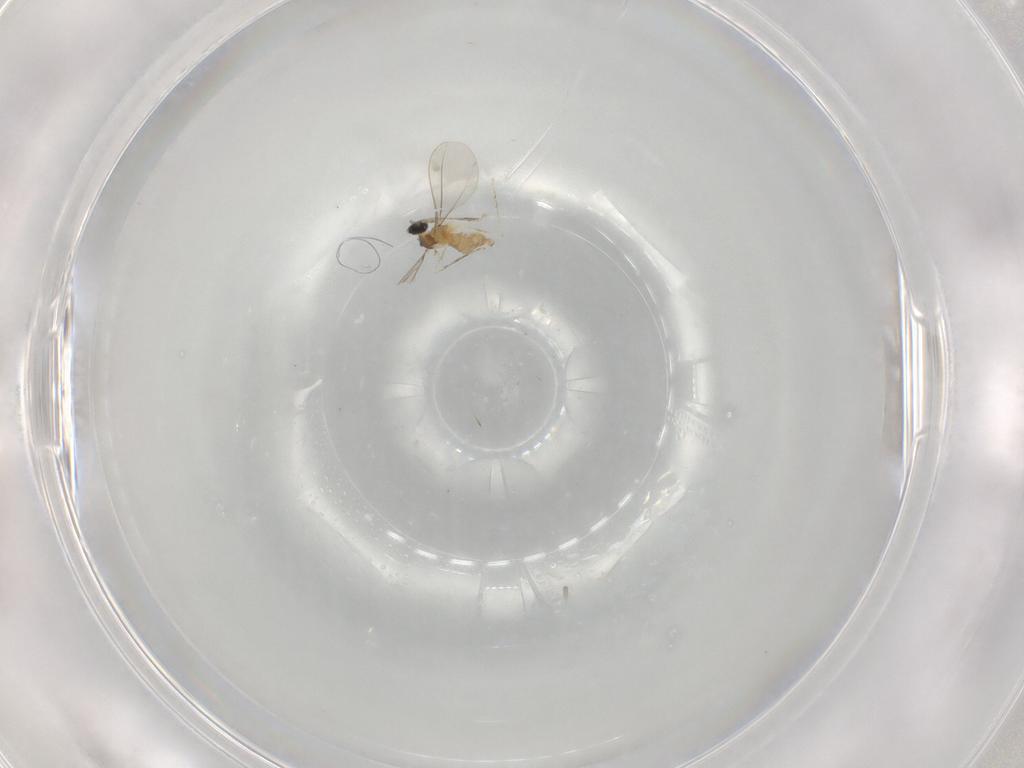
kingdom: Animalia
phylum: Arthropoda
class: Insecta
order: Diptera
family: Cecidomyiidae
